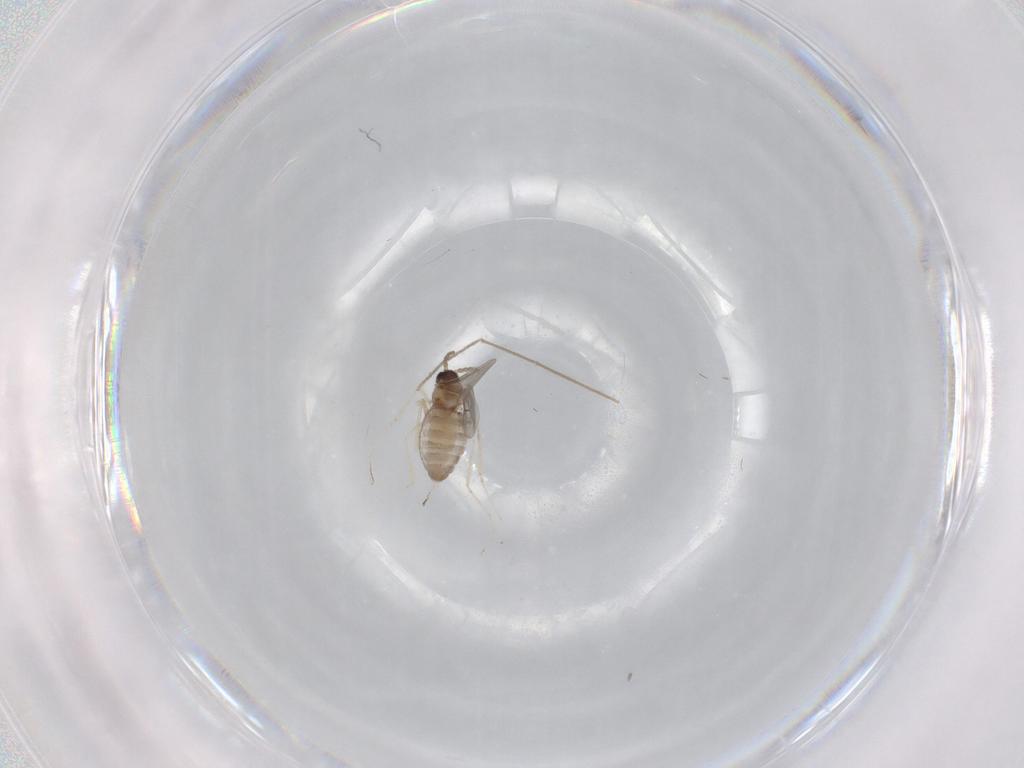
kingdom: Animalia
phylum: Arthropoda
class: Insecta
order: Diptera
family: Cecidomyiidae
